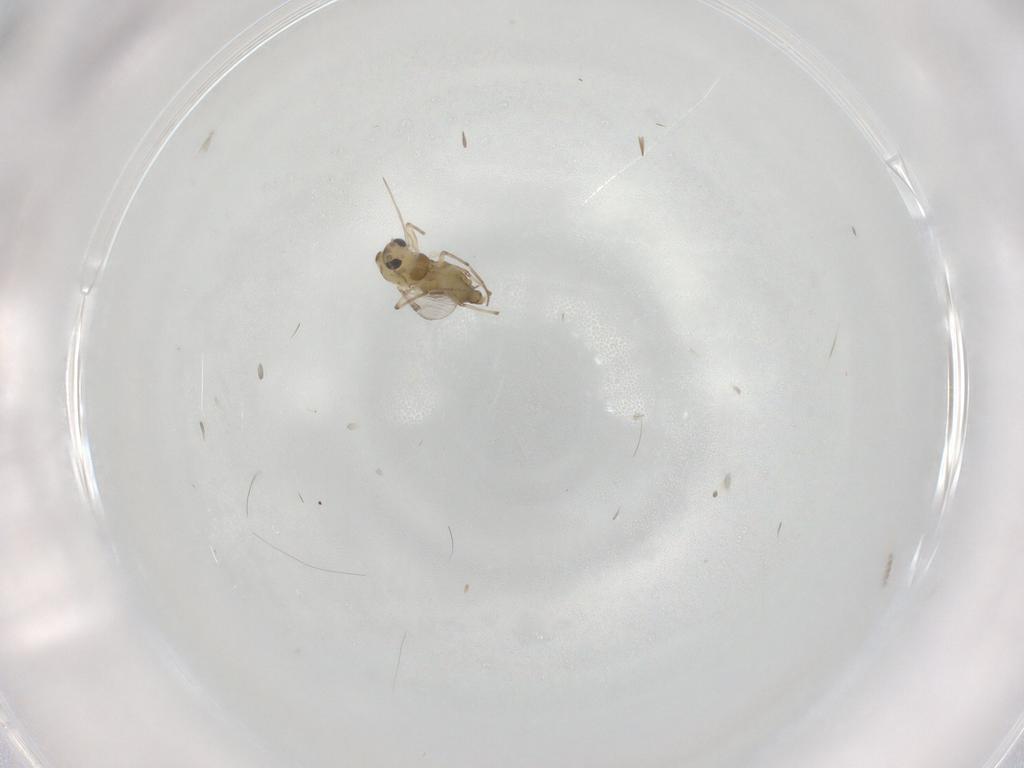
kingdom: Animalia
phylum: Arthropoda
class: Insecta
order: Diptera
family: Chironomidae
